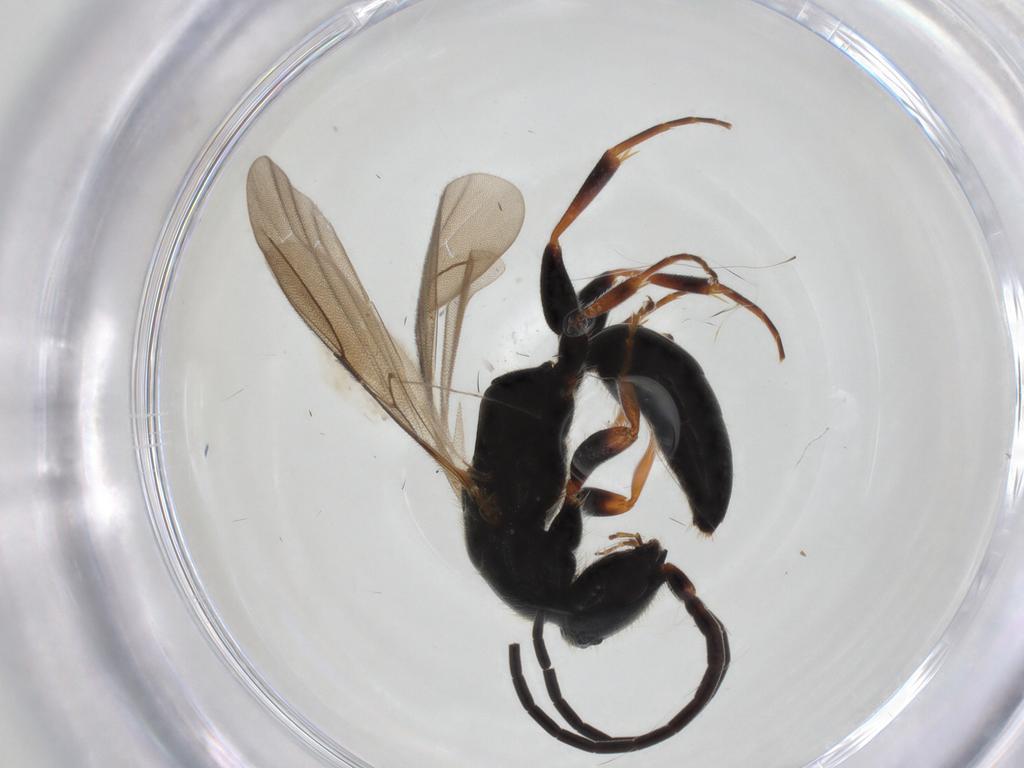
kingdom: Animalia
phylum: Arthropoda
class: Insecta
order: Hymenoptera
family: Bethylidae
